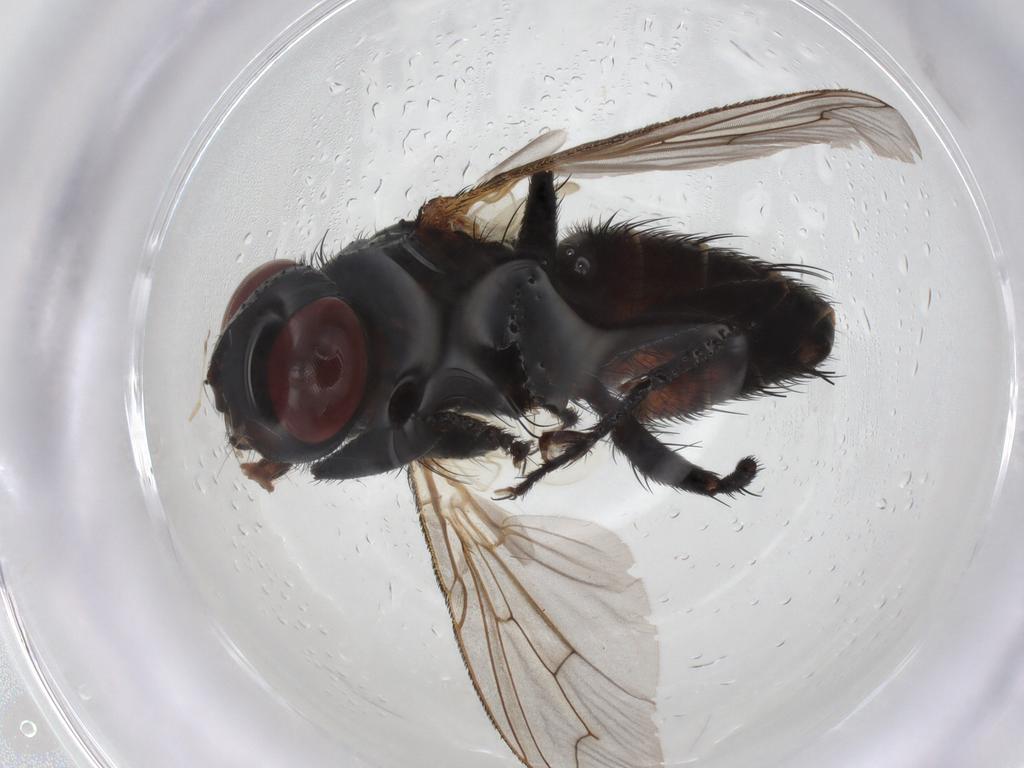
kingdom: Animalia
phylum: Arthropoda
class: Insecta
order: Diptera
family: Sarcophagidae
